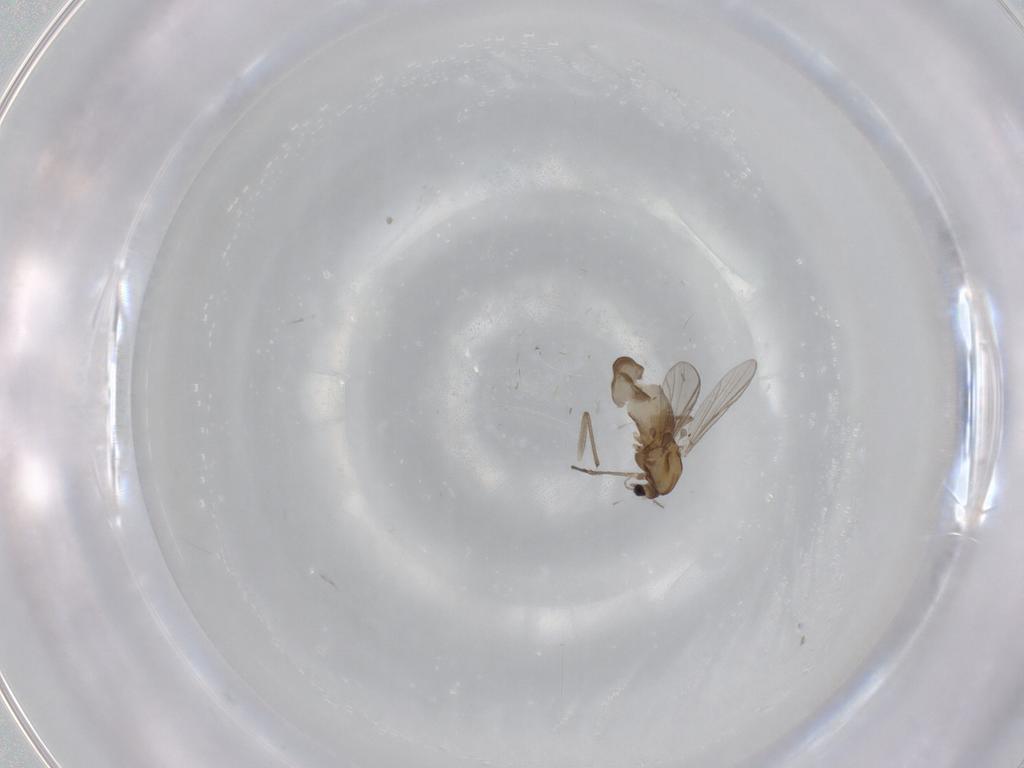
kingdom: Animalia
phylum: Arthropoda
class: Insecta
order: Diptera
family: Chironomidae
